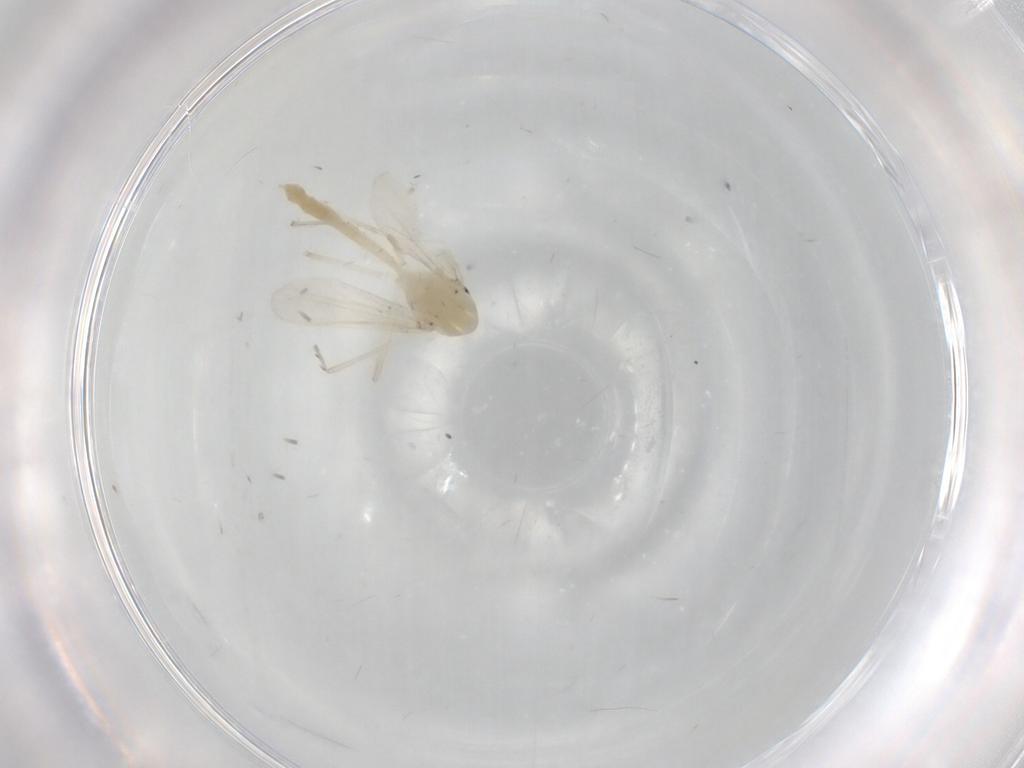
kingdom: Animalia
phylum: Arthropoda
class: Insecta
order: Diptera
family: Chironomidae
